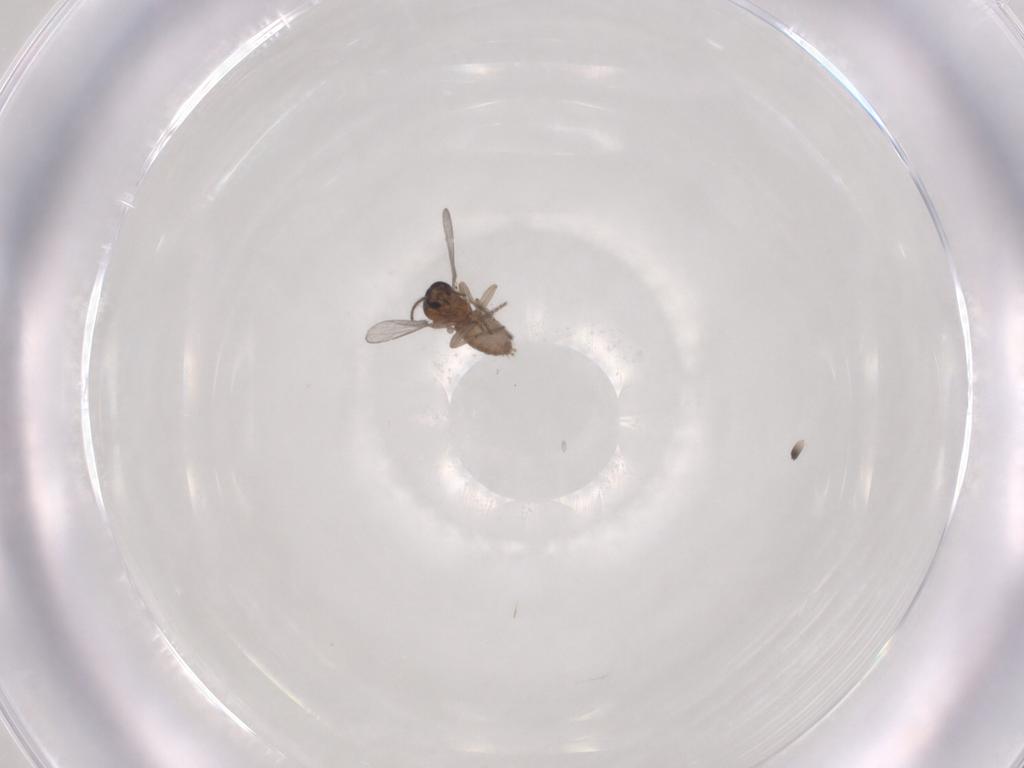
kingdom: Animalia
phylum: Arthropoda
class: Insecta
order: Diptera
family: Ceratopogonidae
